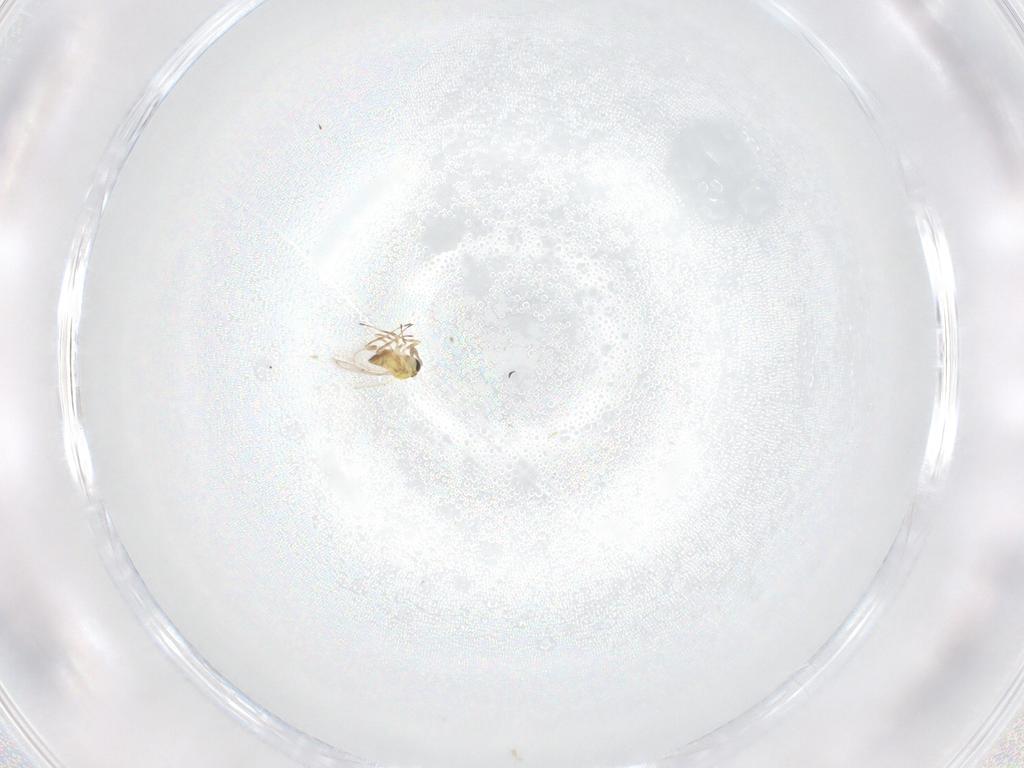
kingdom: Animalia
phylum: Arthropoda
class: Insecta
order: Hymenoptera
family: Trichogrammatidae
